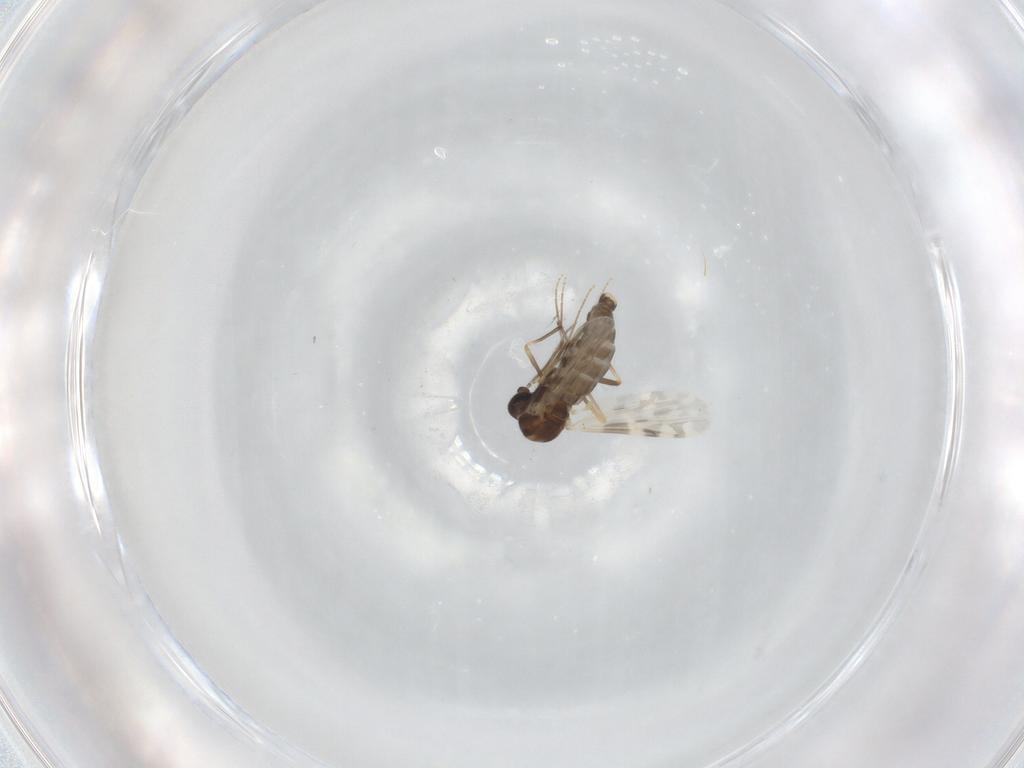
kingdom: Animalia
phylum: Arthropoda
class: Insecta
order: Diptera
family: Ceratopogonidae
